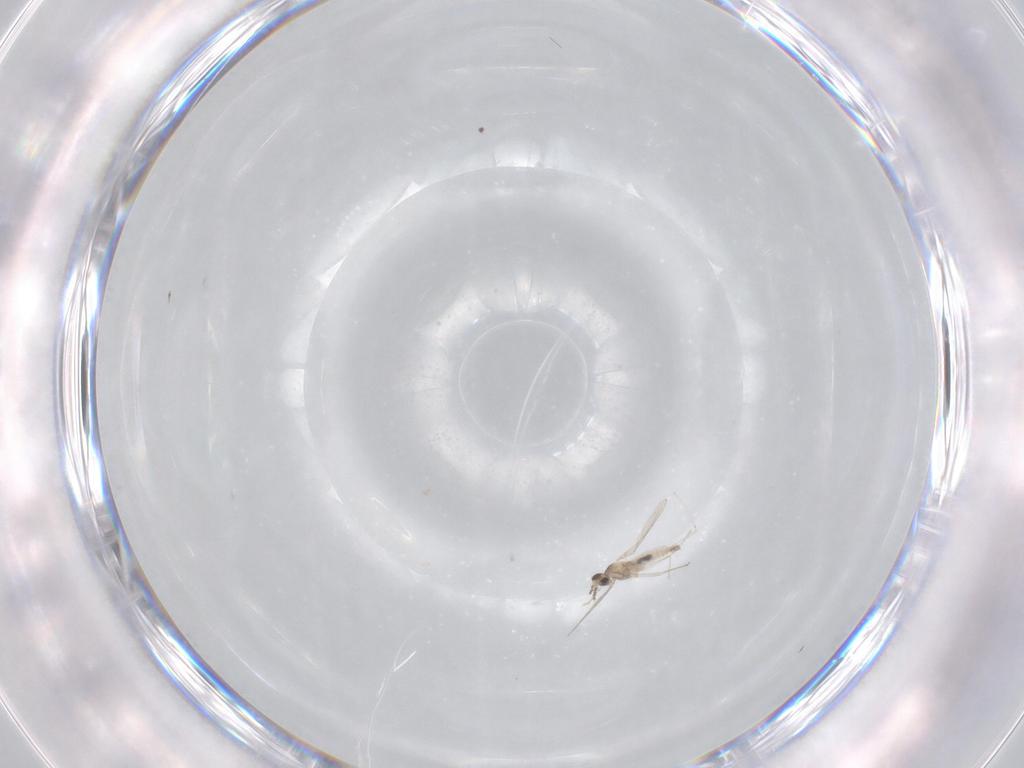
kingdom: Animalia
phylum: Arthropoda
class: Insecta
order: Diptera
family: Cecidomyiidae
